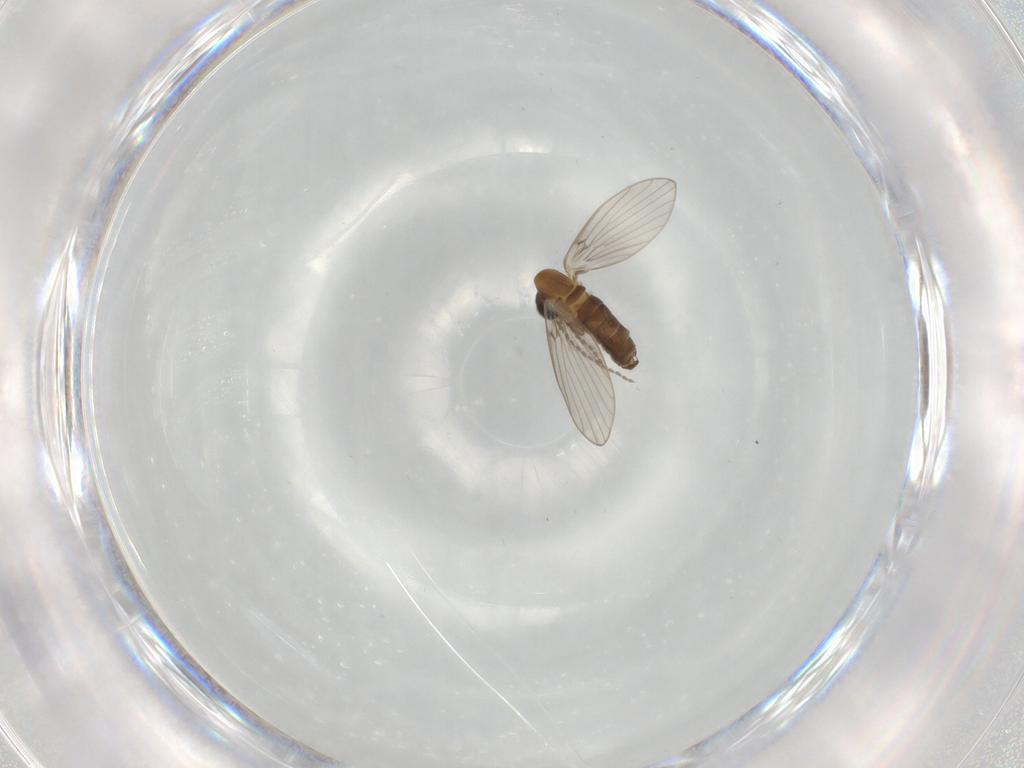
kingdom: Animalia
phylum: Arthropoda
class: Insecta
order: Diptera
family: Psychodidae
